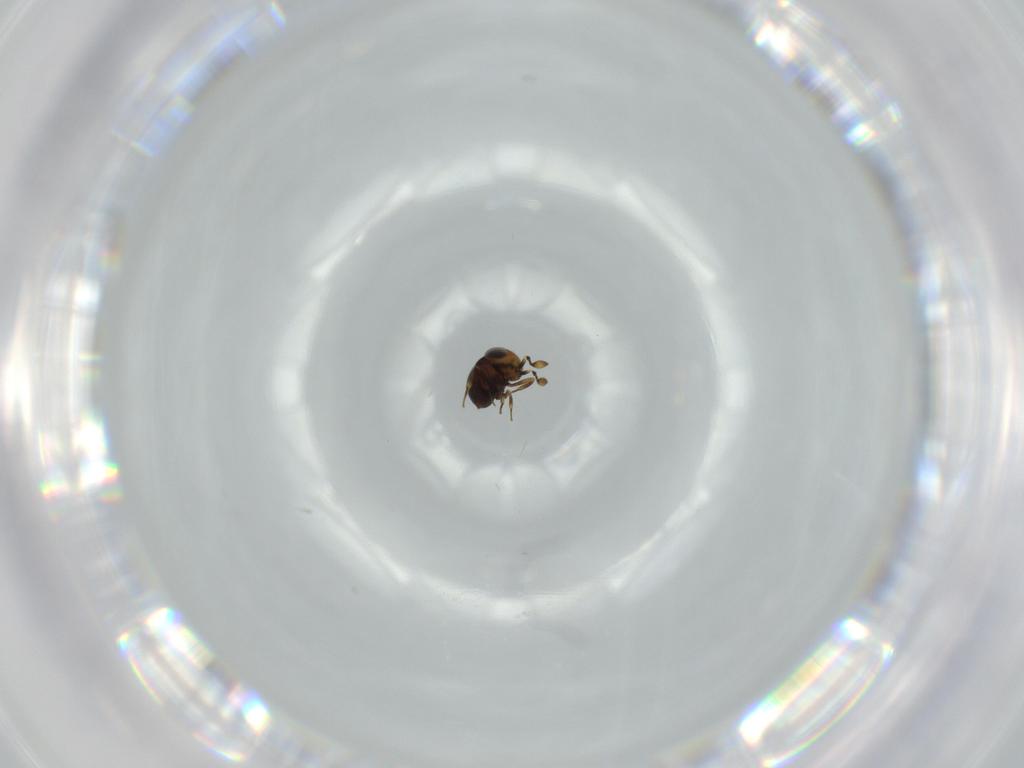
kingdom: Animalia
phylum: Arthropoda
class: Insecta
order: Hymenoptera
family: Scelionidae
